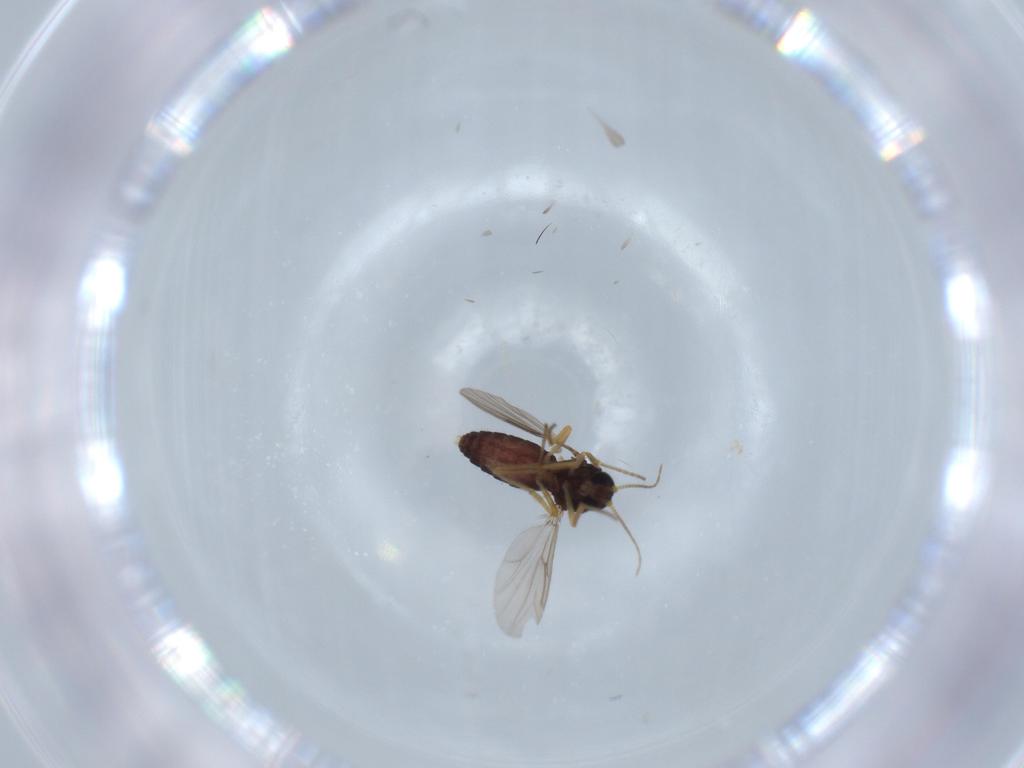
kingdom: Animalia
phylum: Arthropoda
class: Insecta
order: Diptera
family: Ceratopogonidae
